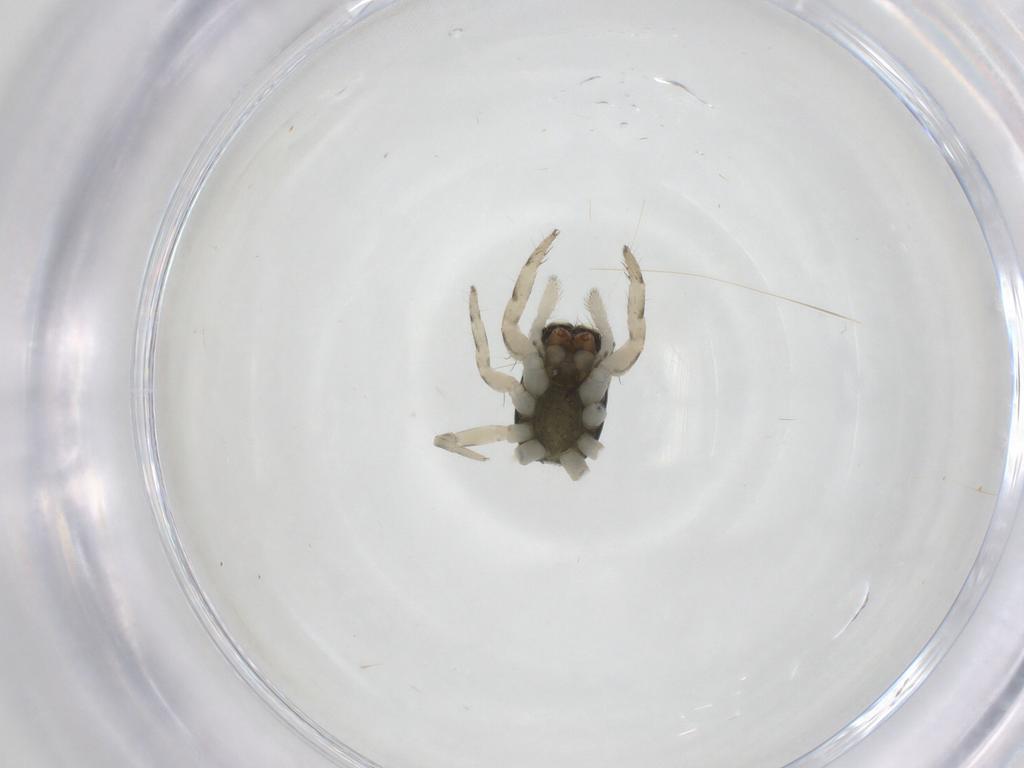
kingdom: Animalia
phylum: Arthropoda
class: Arachnida
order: Araneae
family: Salticidae
